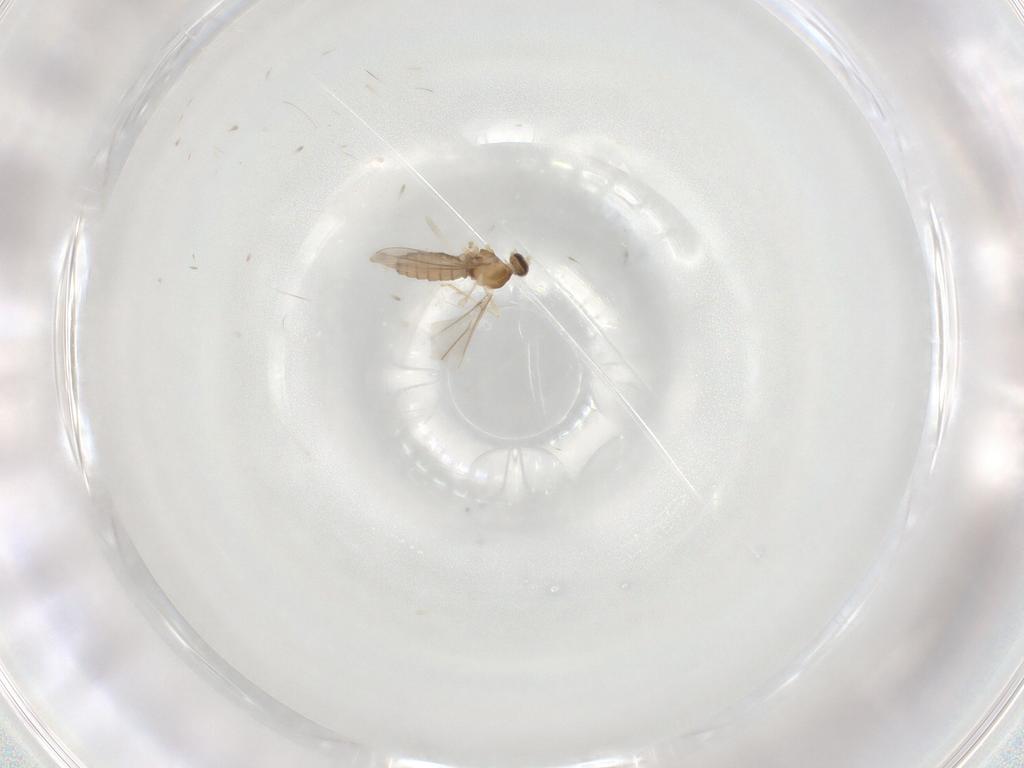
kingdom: Animalia
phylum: Arthropoda
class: Insecta
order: Diptera
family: Cecidomyiidae
